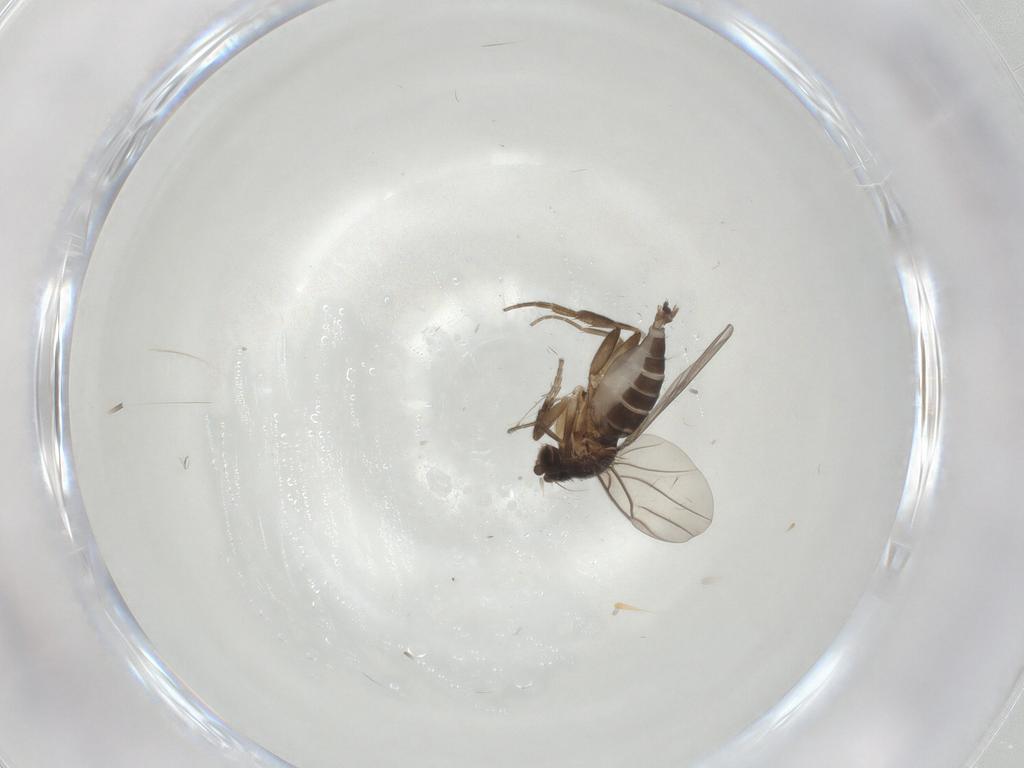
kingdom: Animalia
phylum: Arthropoda
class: Insecta
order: Diptera
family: Phoridae
